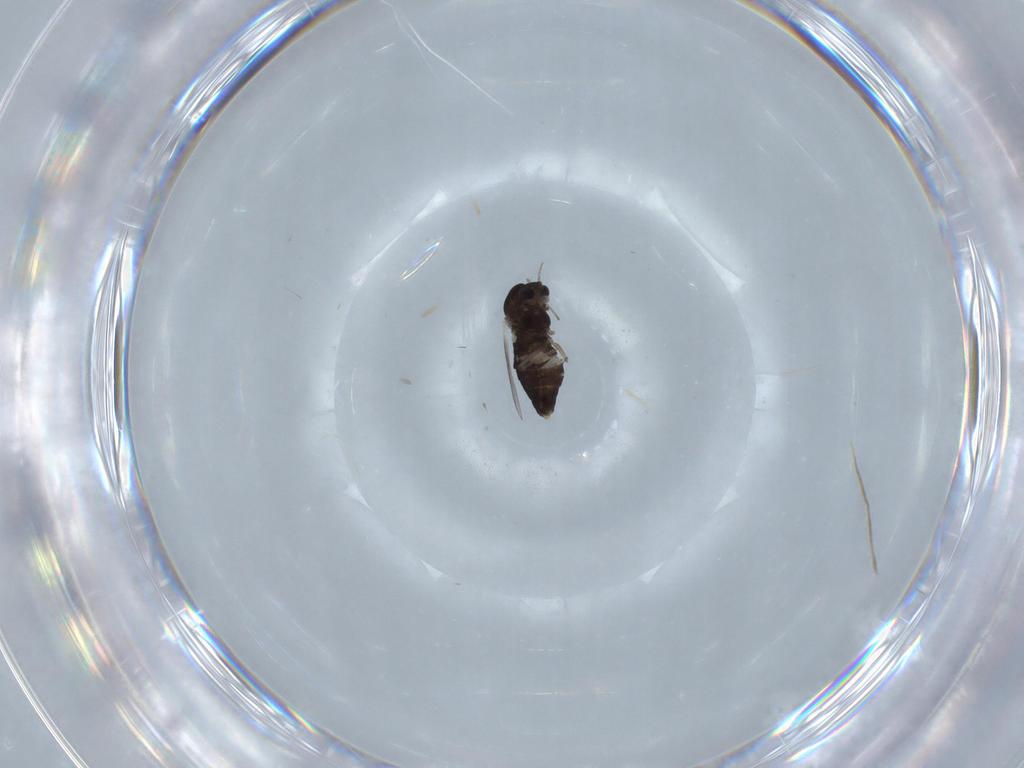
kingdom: Animalia
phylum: Arthropoda
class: Insecta
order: Diptera
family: Chironomidae
